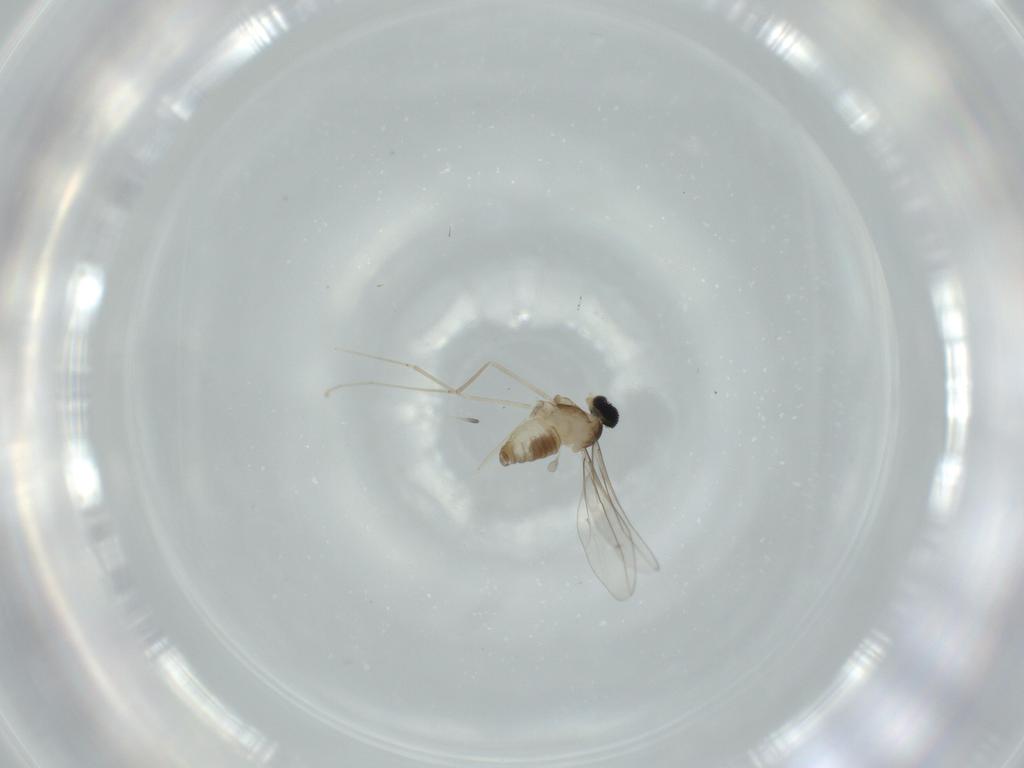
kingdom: Animalia
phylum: Arthropoda
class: Insecta
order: Diptera
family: Cecidomyiidae
